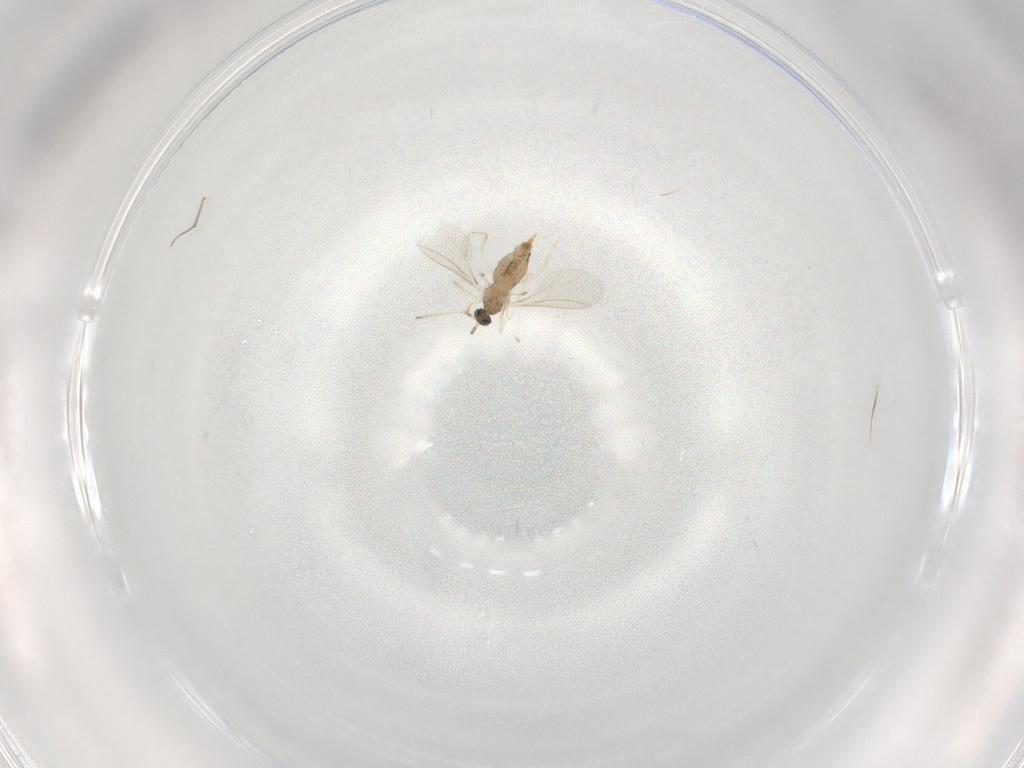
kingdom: Animalia
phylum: Arthropoda
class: Insecta
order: Diptera
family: Cecidomyiidae
